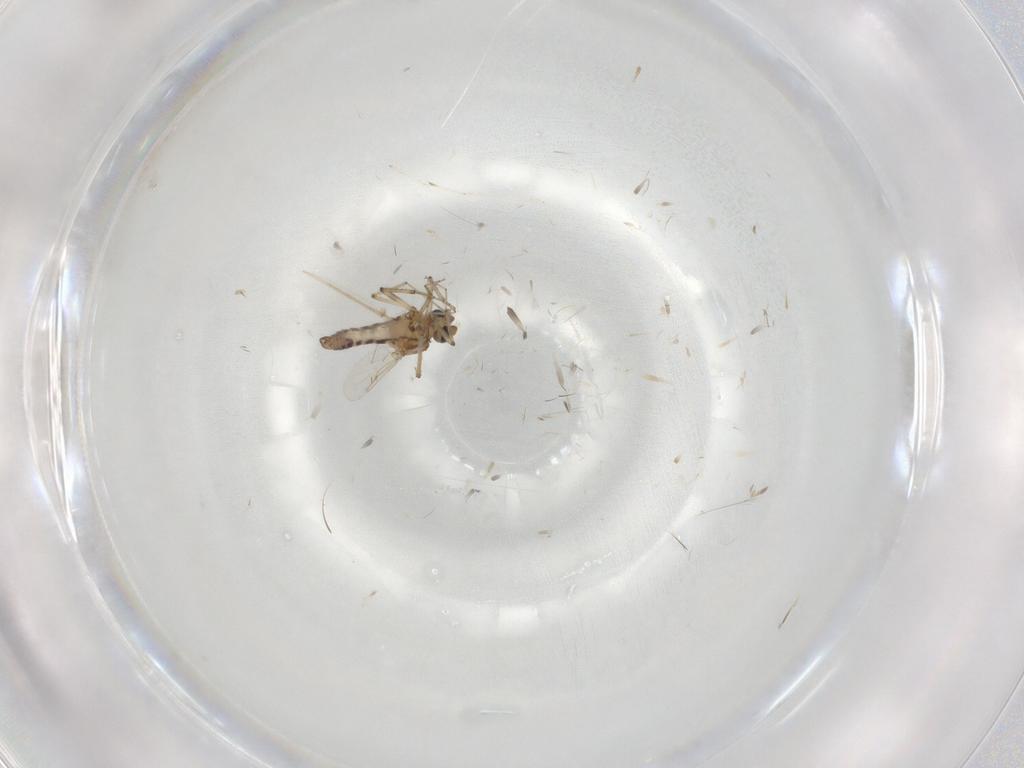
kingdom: Animalia
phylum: Arthropoda
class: Insecta
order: Diptera
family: Ceratopogonidae
